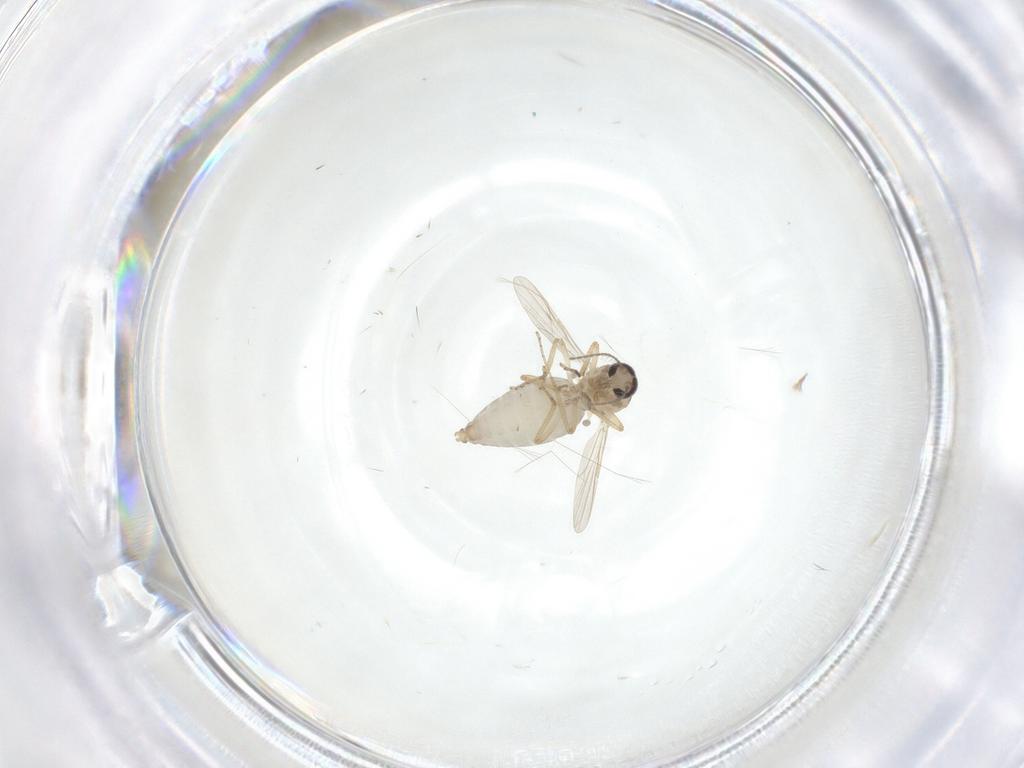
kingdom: Animalia
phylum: Arthropoda
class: Insecta
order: Diptera
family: Ceratopogonidae
